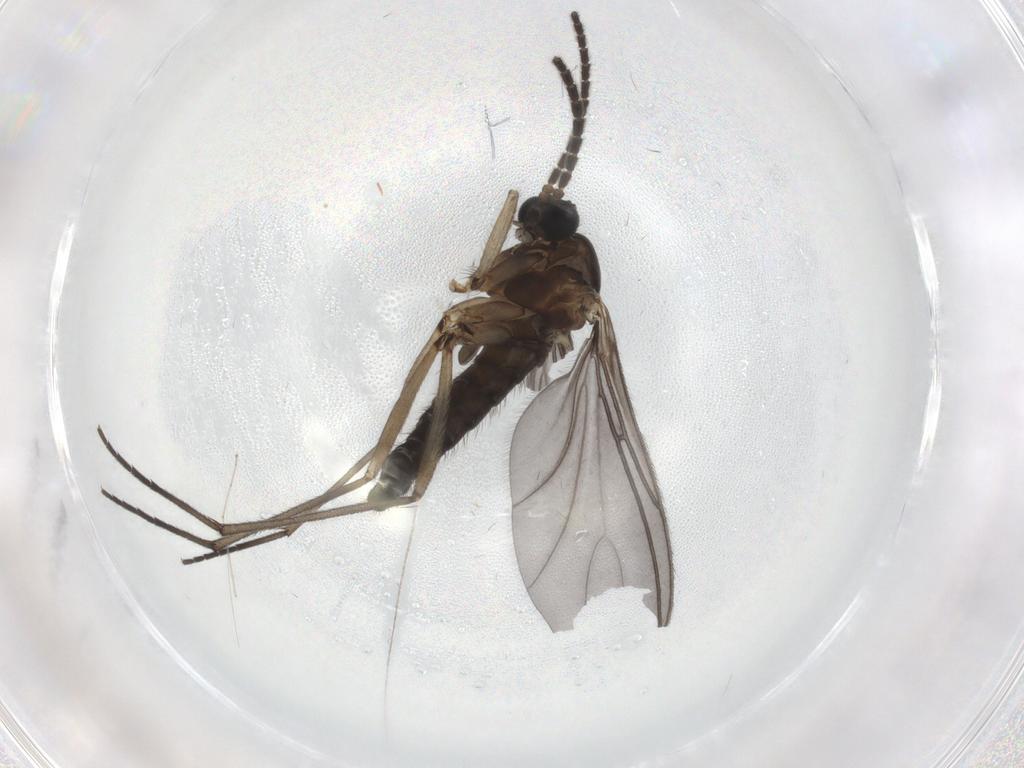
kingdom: Animalia
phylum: Arthropoda
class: Insecta
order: Diptera
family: Sciaridae
